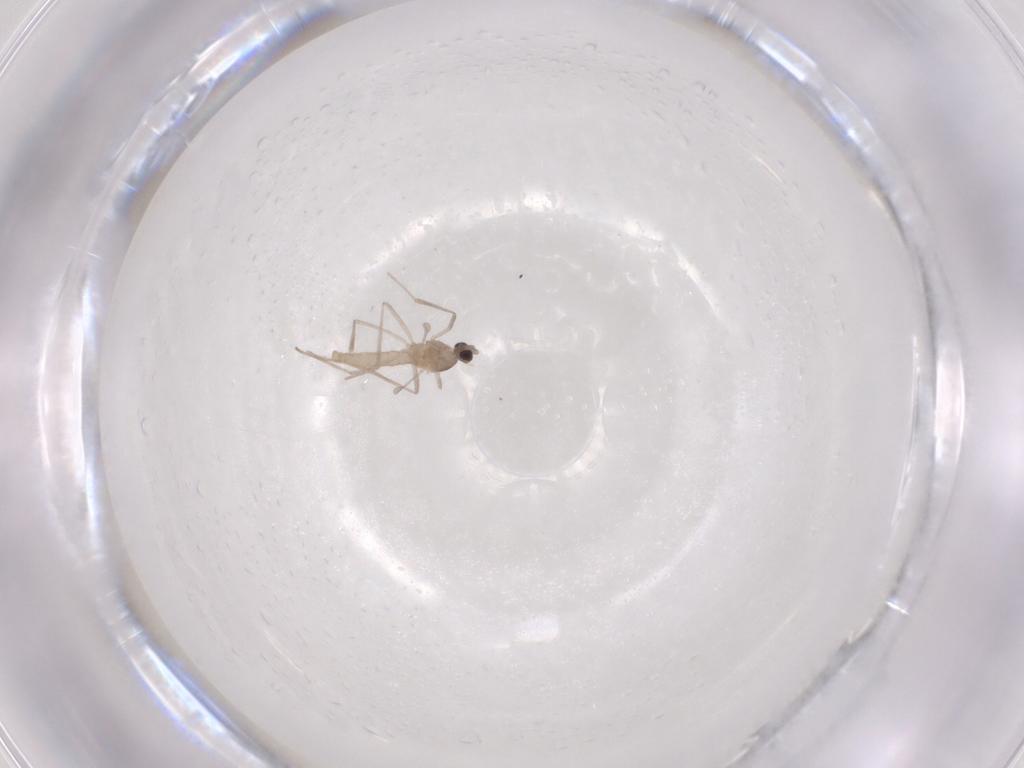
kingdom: Animalia
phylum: Arthropoda
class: Insecta
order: Diptera
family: Cecidomyiidae
